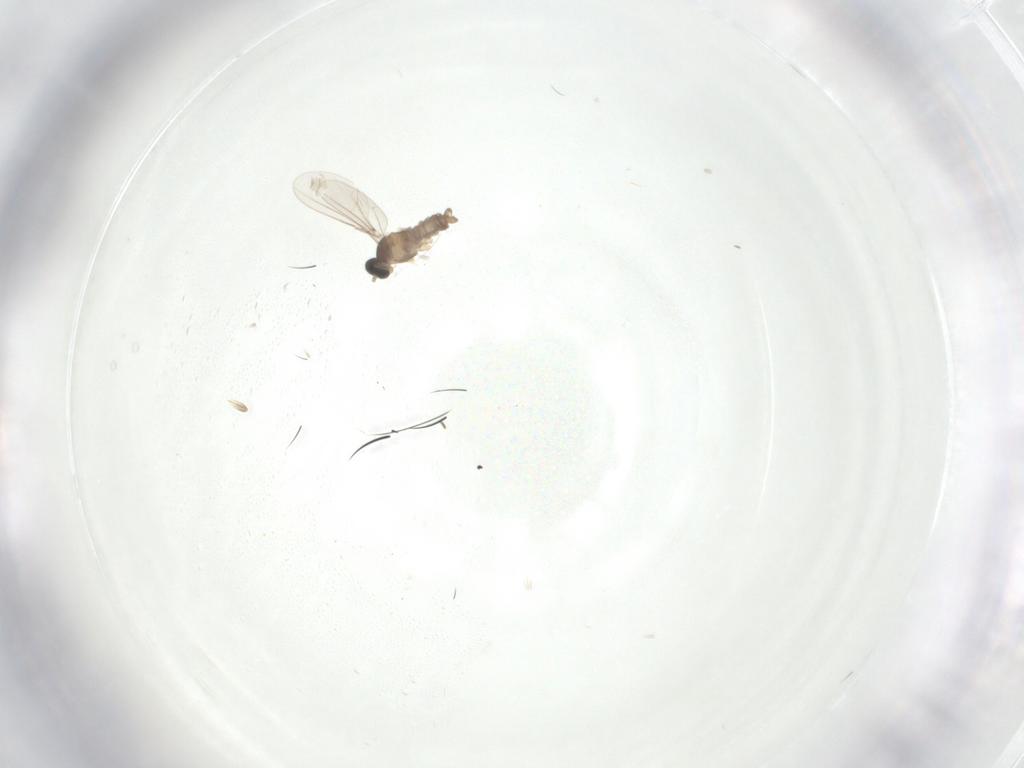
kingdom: Animalia
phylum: Arthropoda
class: Insecta
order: Diptera
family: Cecidomyiidae
